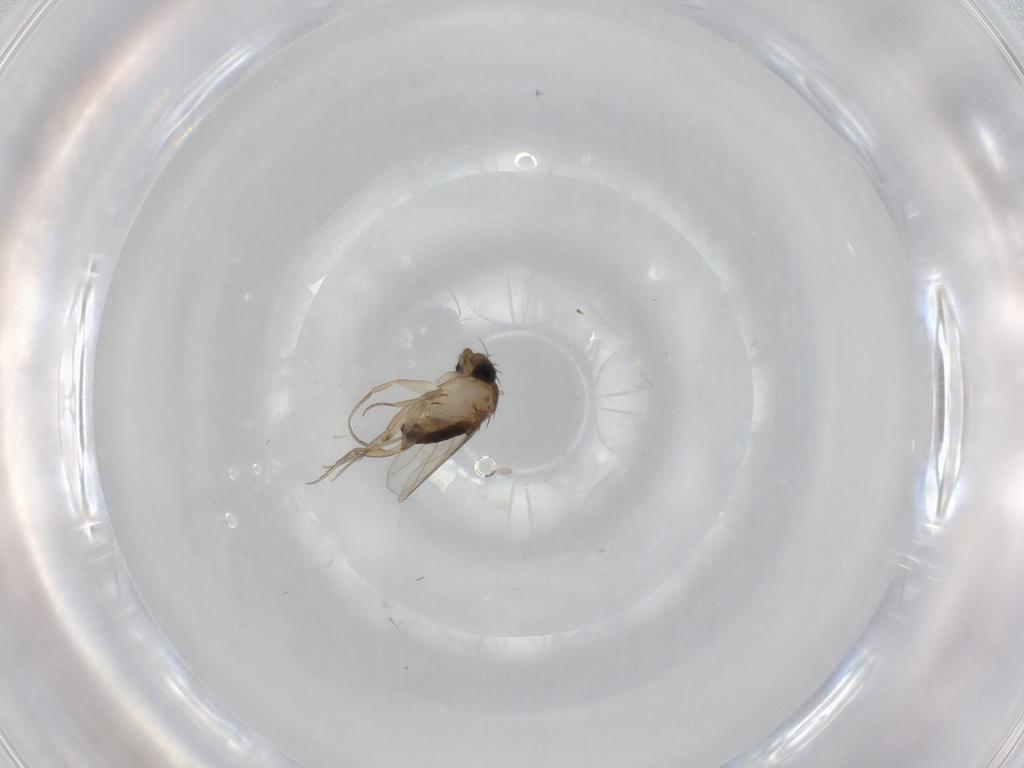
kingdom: Animalia
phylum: Arthropoda
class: Insecta
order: Diptera
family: Phoridae
